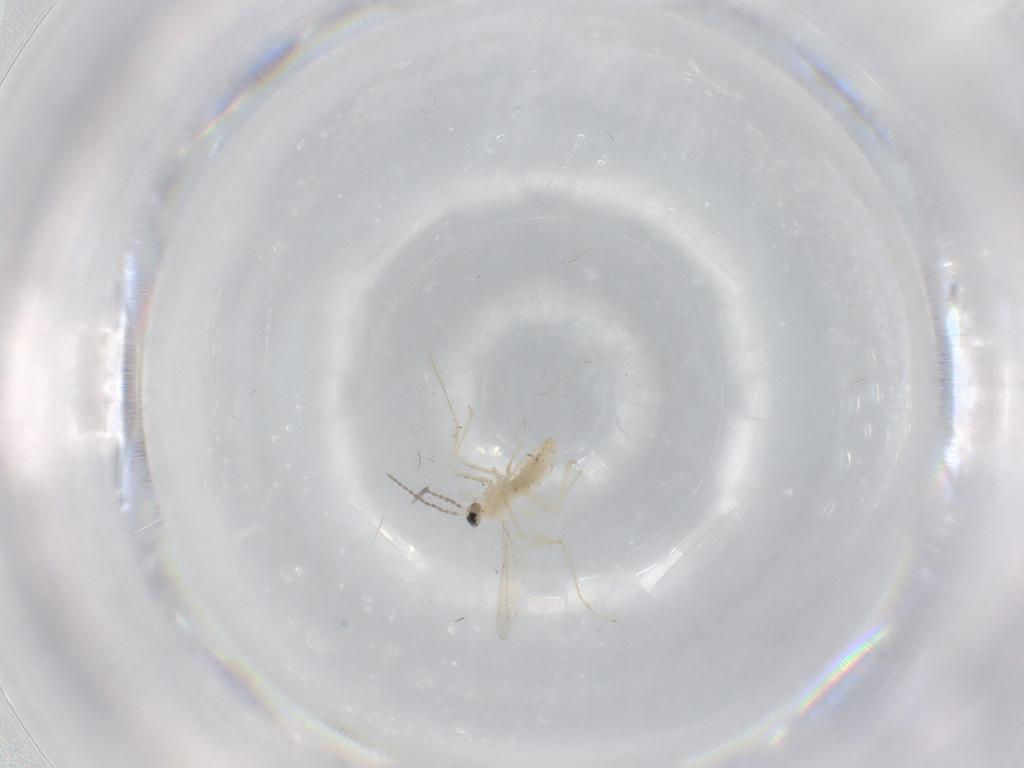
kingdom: Animalia
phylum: Arthropoda
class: Insecta
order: Diptera
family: Cecidomyiidae
